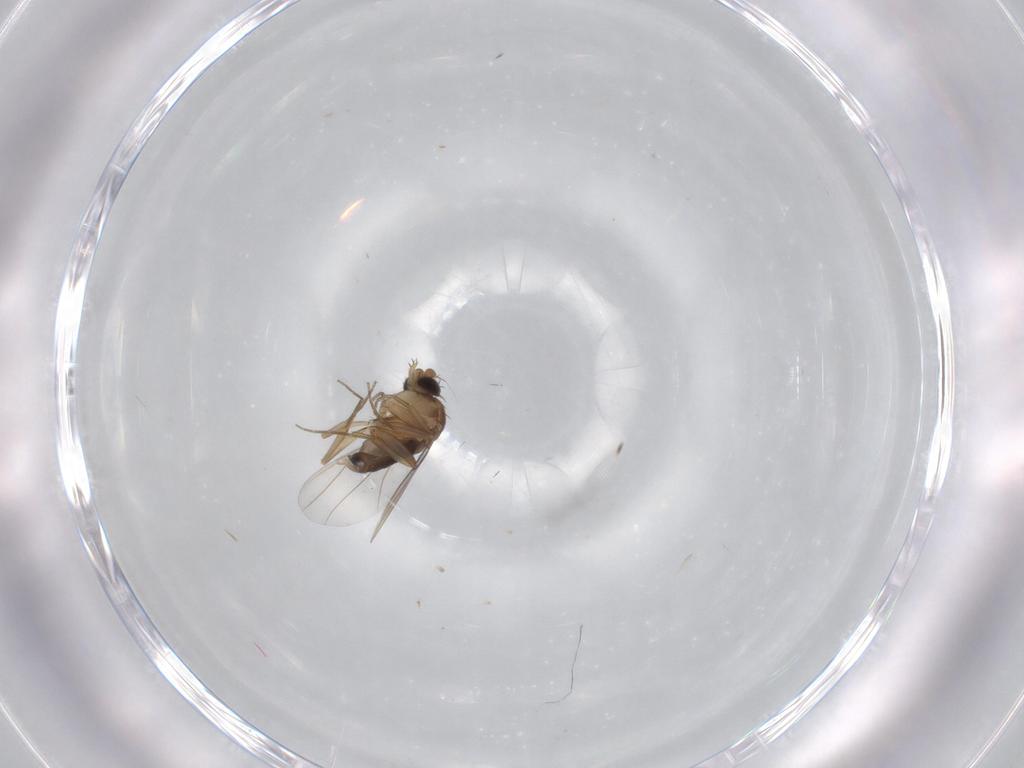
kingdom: Animalia
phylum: Arthropoda
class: Insecta
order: Diptera
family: Phoridae
